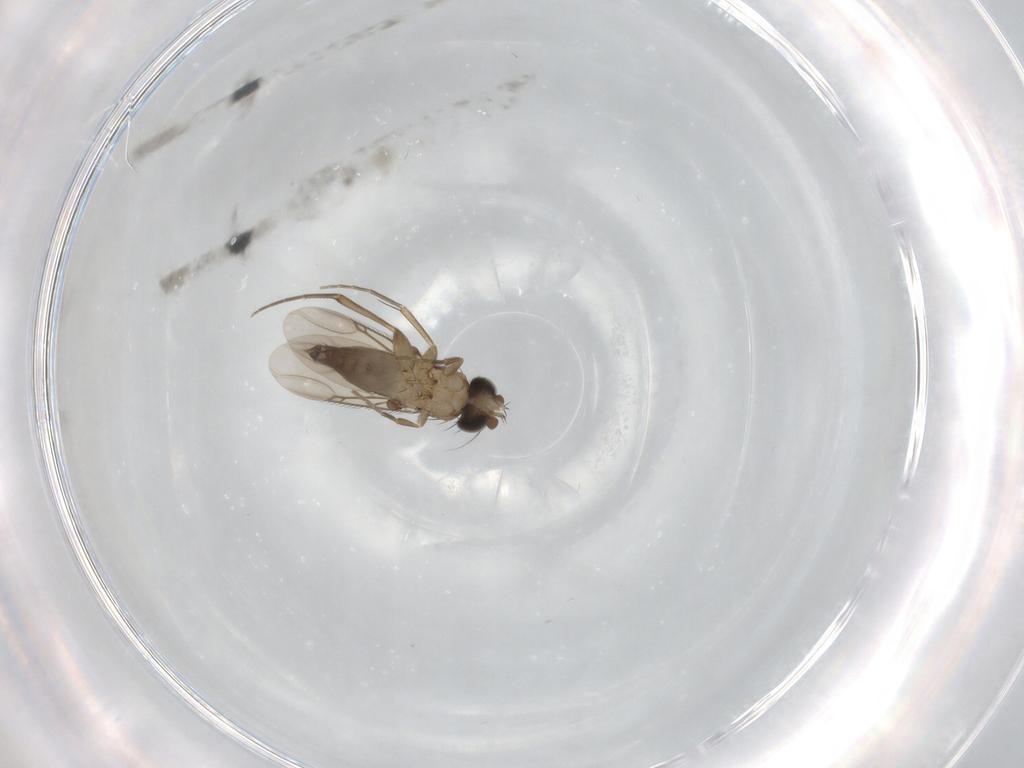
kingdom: Animalia
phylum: Arthropoda
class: Insecta
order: Diptera
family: Phoridae
